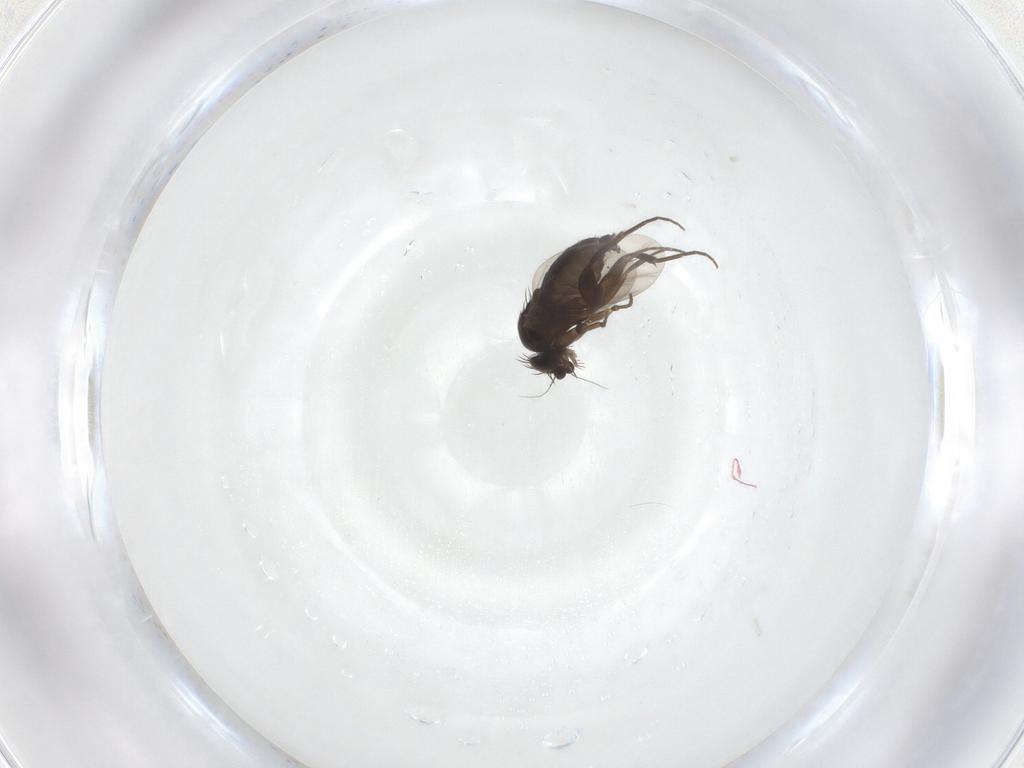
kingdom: Animalia
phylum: Arthropoda
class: Insecta
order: Diptera
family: Phoridae
